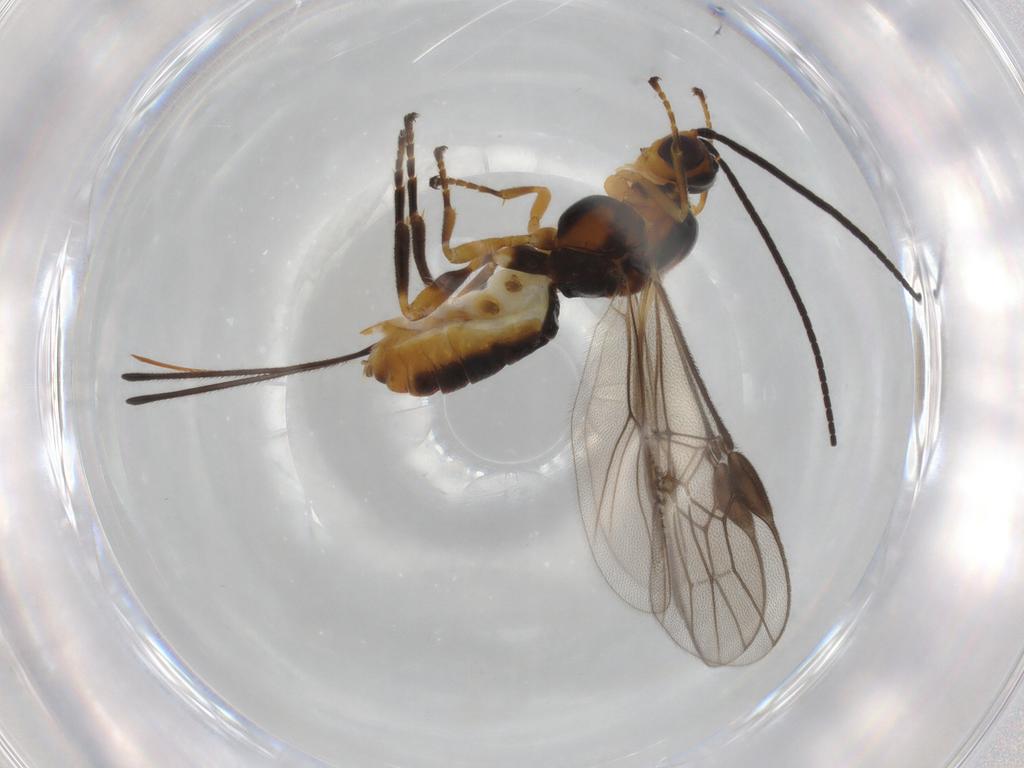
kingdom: Animalia
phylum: Arthropoda
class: Insecta
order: Hymenoptera
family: Braconidae
